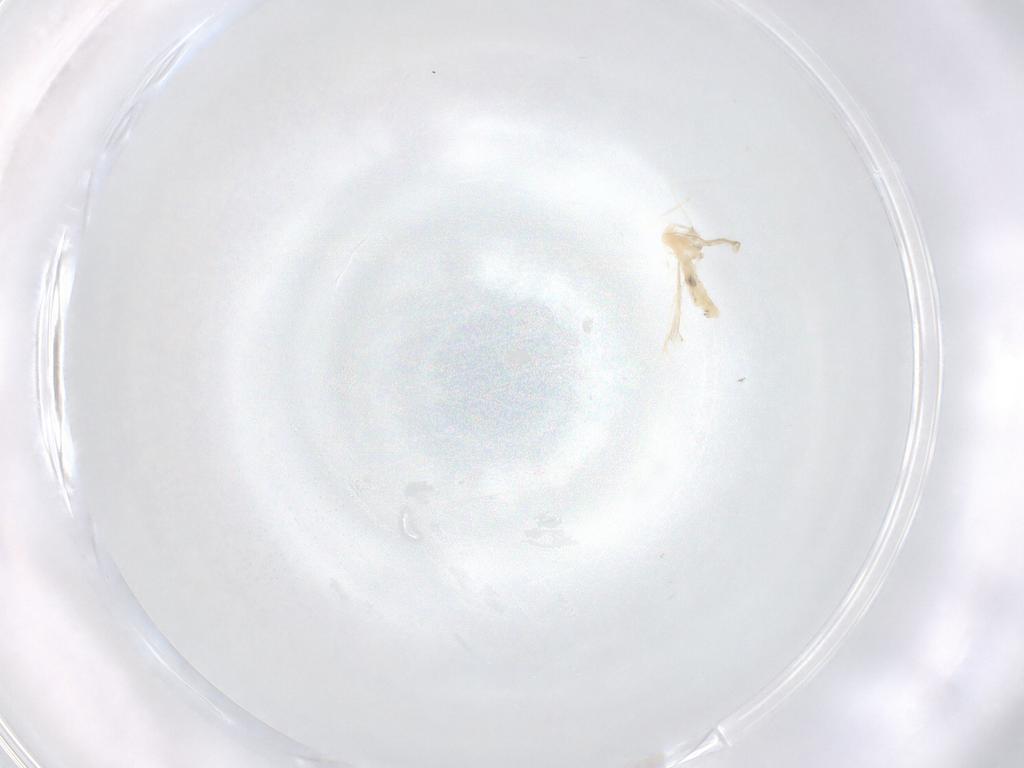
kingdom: Animalia
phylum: Arthropoda
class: Insecta
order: Diptera
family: Cecidomyiidae
